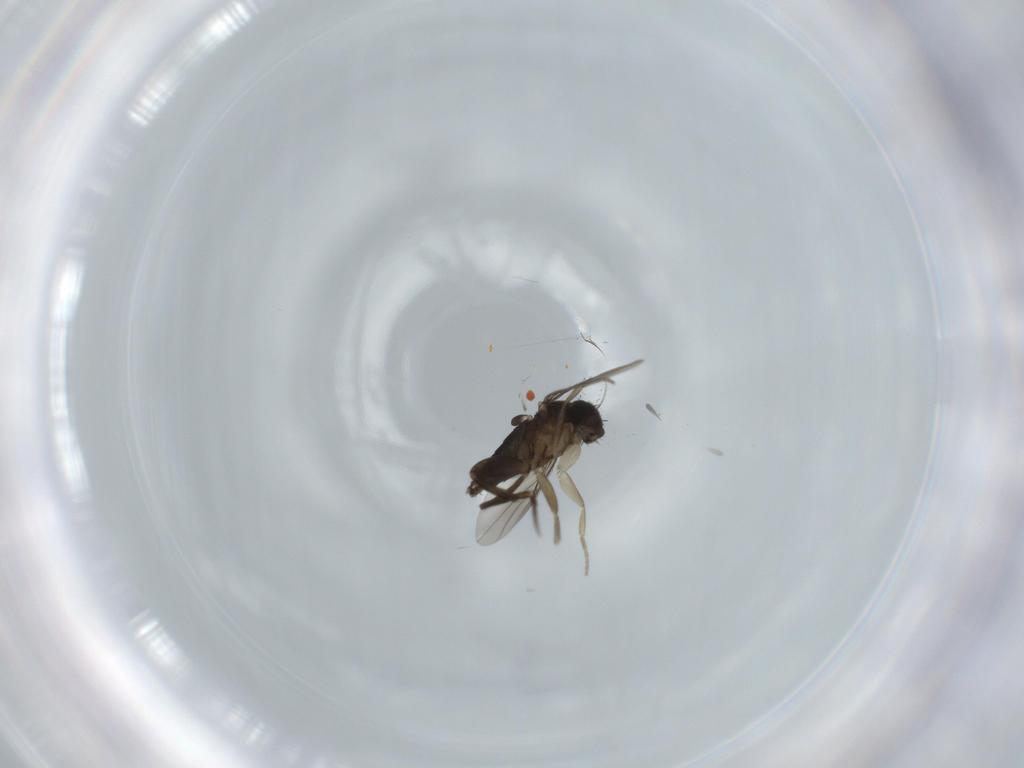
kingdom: Animalia
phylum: Arthropoda
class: Insecta
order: Diptera
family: Phoridae
